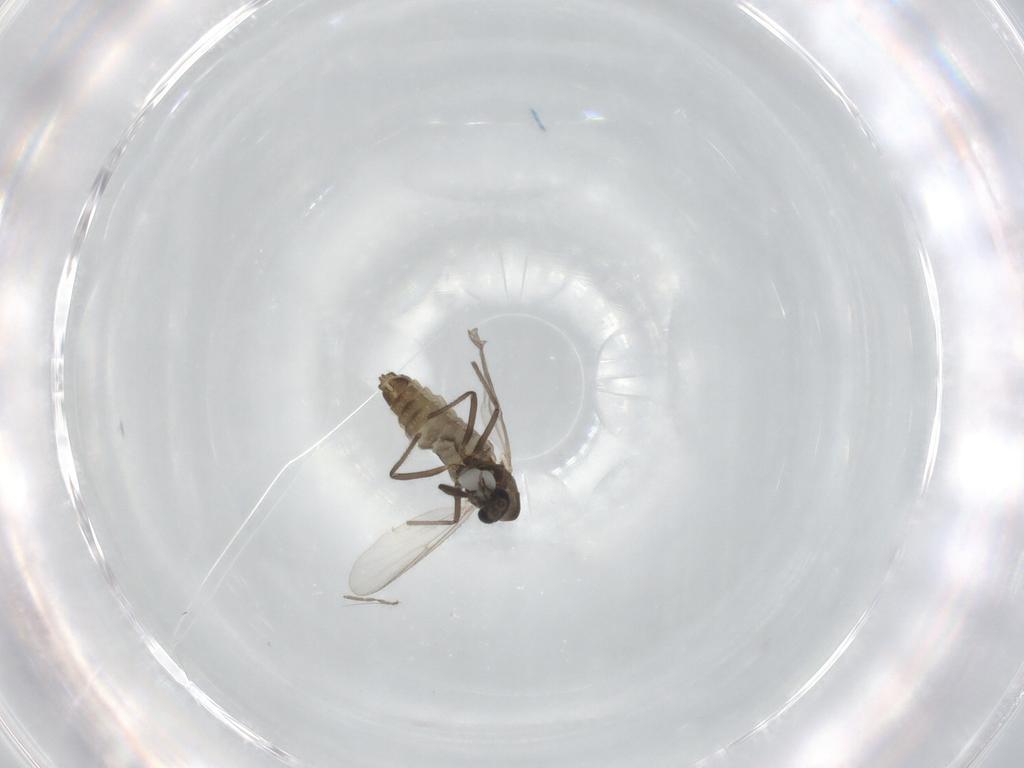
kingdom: Animalia
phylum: Arthropoda
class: Insecta
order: Diptera
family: Chironomidae
